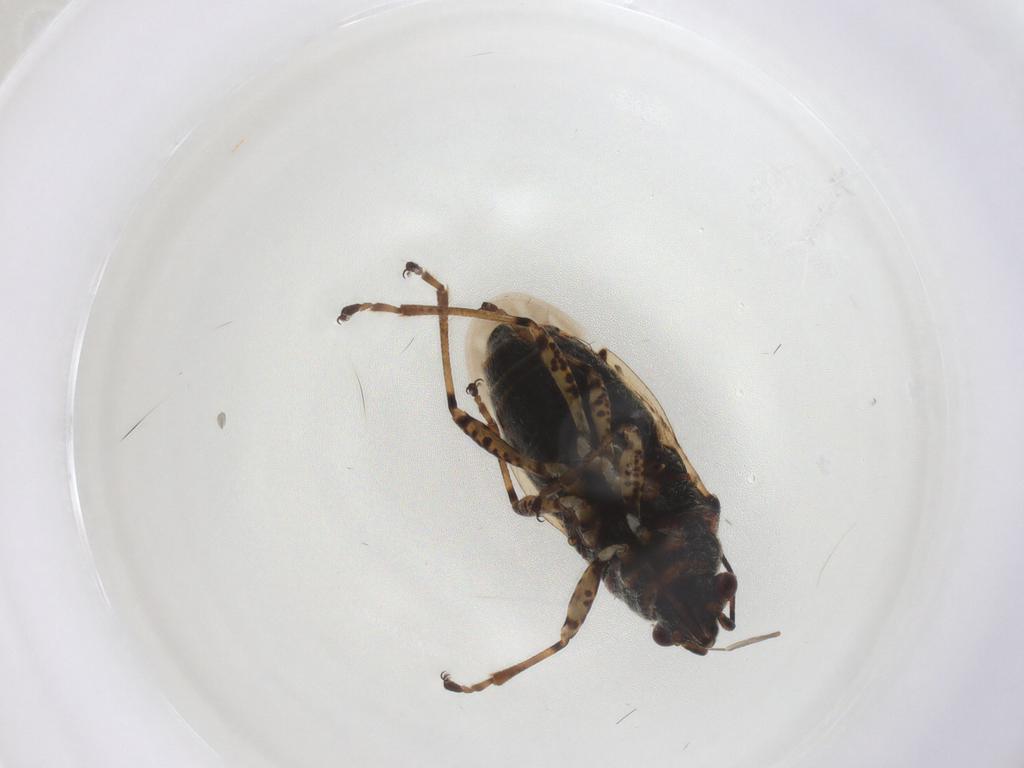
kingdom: Animalia
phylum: Arthropoda
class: Insecta
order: Hemiptera
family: Lygaeidae
